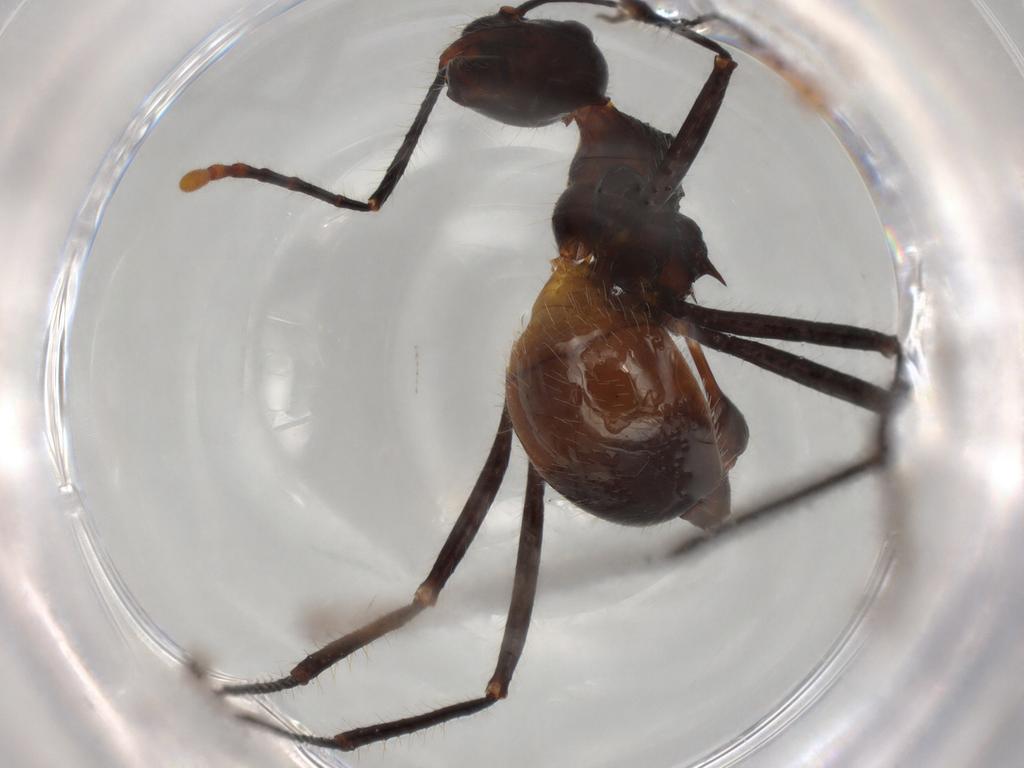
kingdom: Animalia
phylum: Arthropoda
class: Insecta
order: Hymenoptera
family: Formicidae
